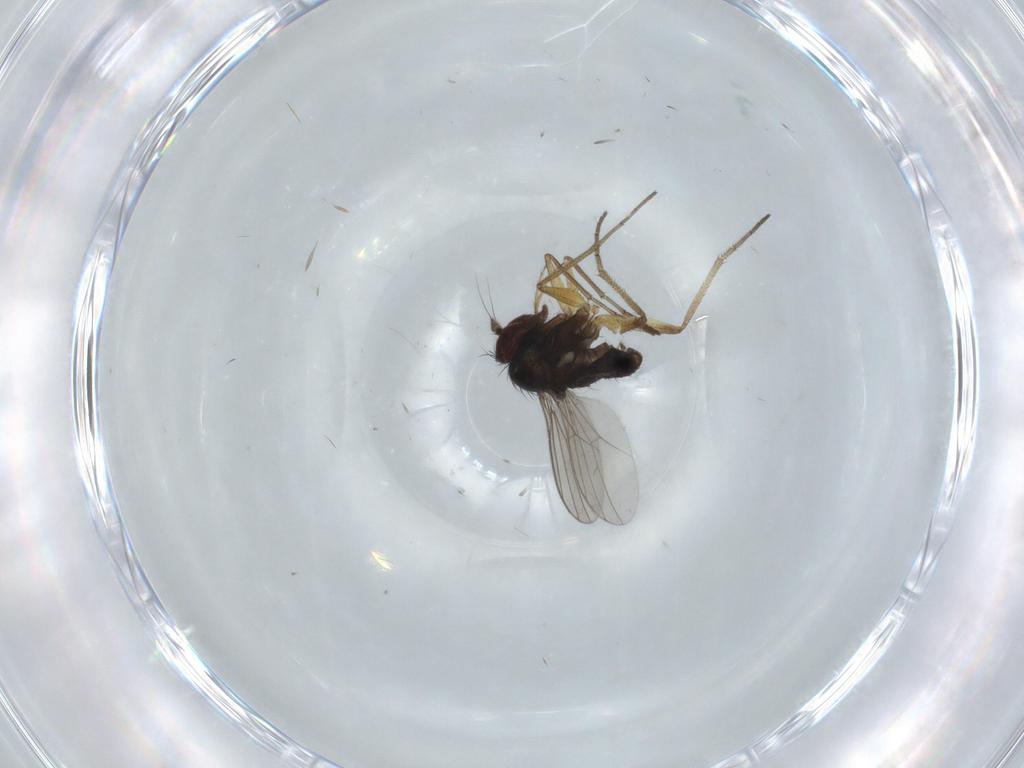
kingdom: Animalia
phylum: Arthropoda
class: Insecta
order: Diptera
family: Dolichopodidae
